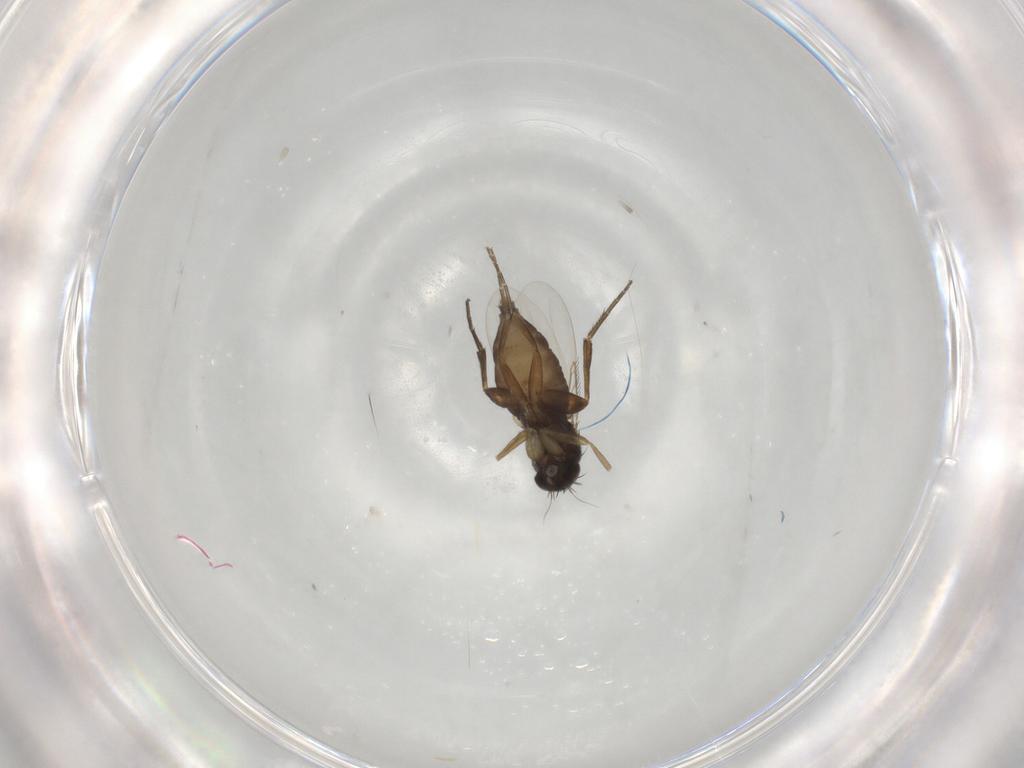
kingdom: Animalia
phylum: Arthropoda
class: Insecta
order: Diptera
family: Phoridae
